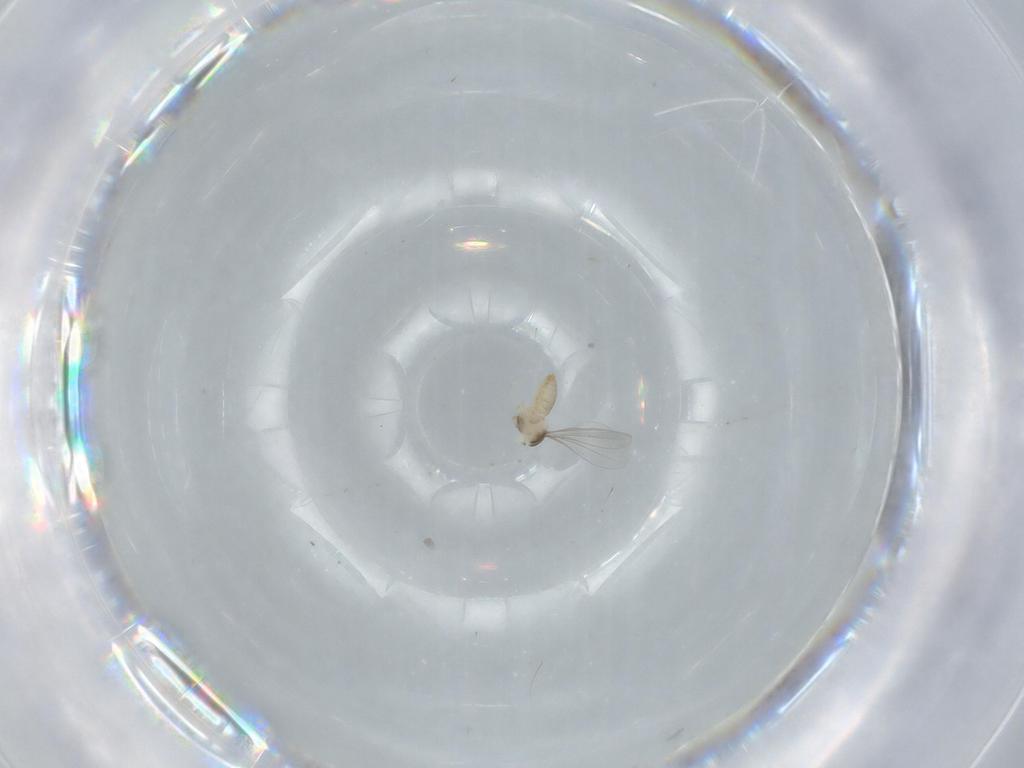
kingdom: Animalia
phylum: Arthropoda
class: Insecta
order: Diptera
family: Cecidomyiidae
